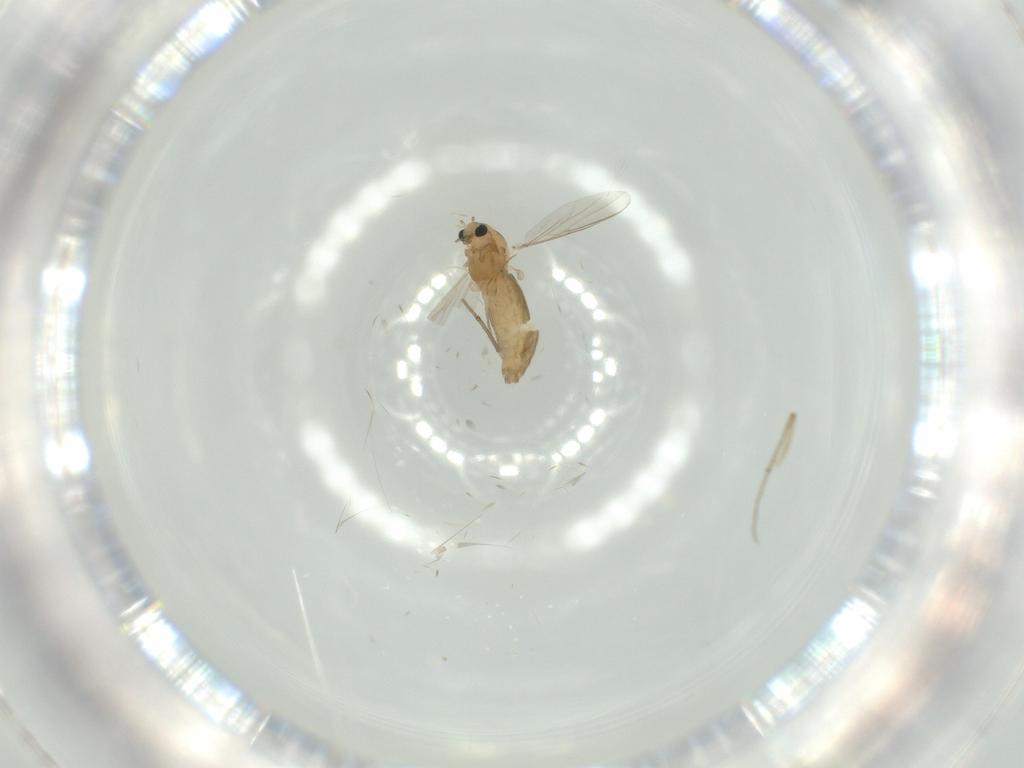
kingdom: Animalia
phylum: Arthropoda
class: Insecta
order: Diptera
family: Chironomidae
